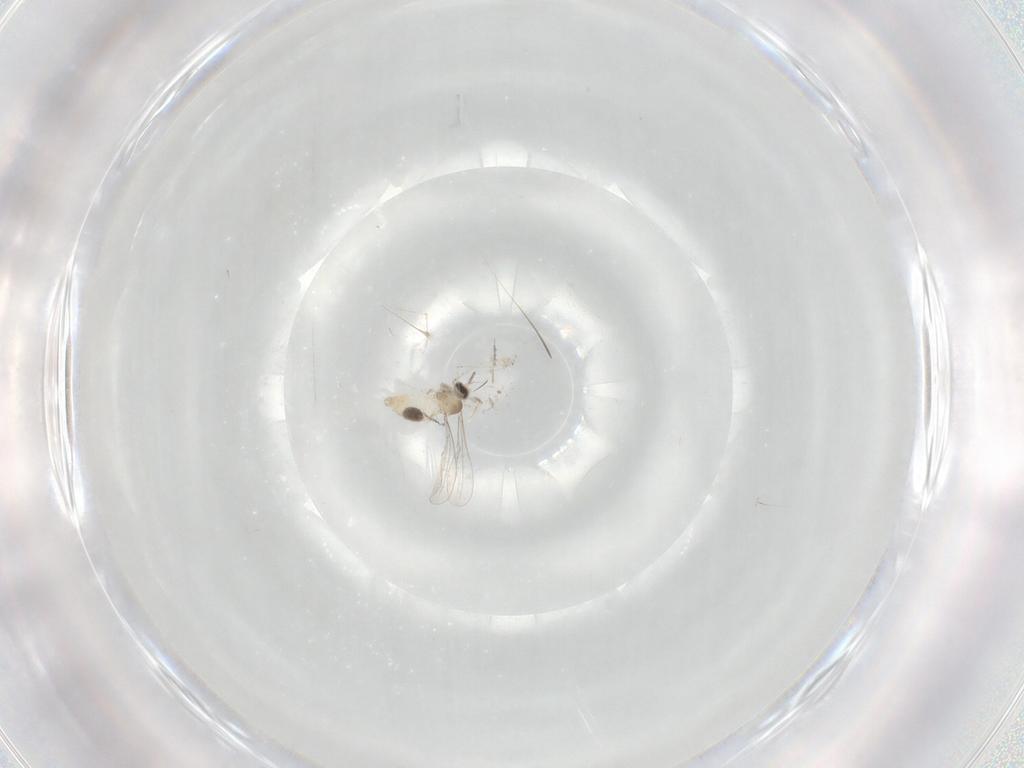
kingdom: Animalia
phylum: Arthropoda
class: Insecta
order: Diptera
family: Cecidomyiidae
